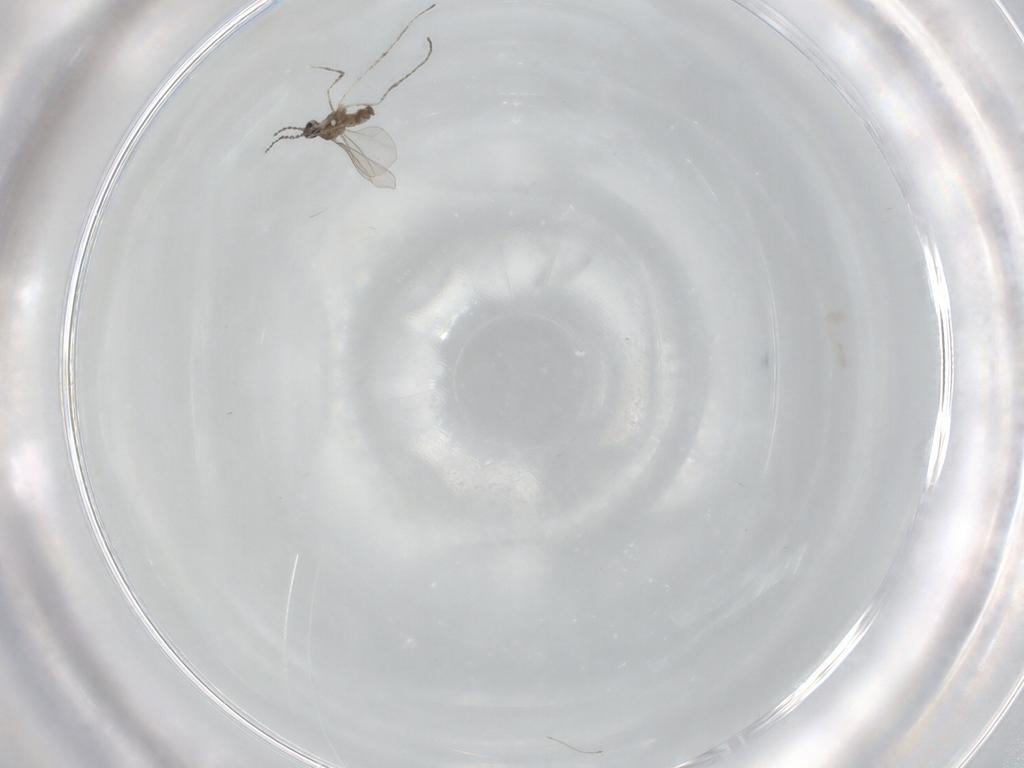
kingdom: Animalia
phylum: Arthropoda
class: Insecta
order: Diptera
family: Cecidomyiidae
